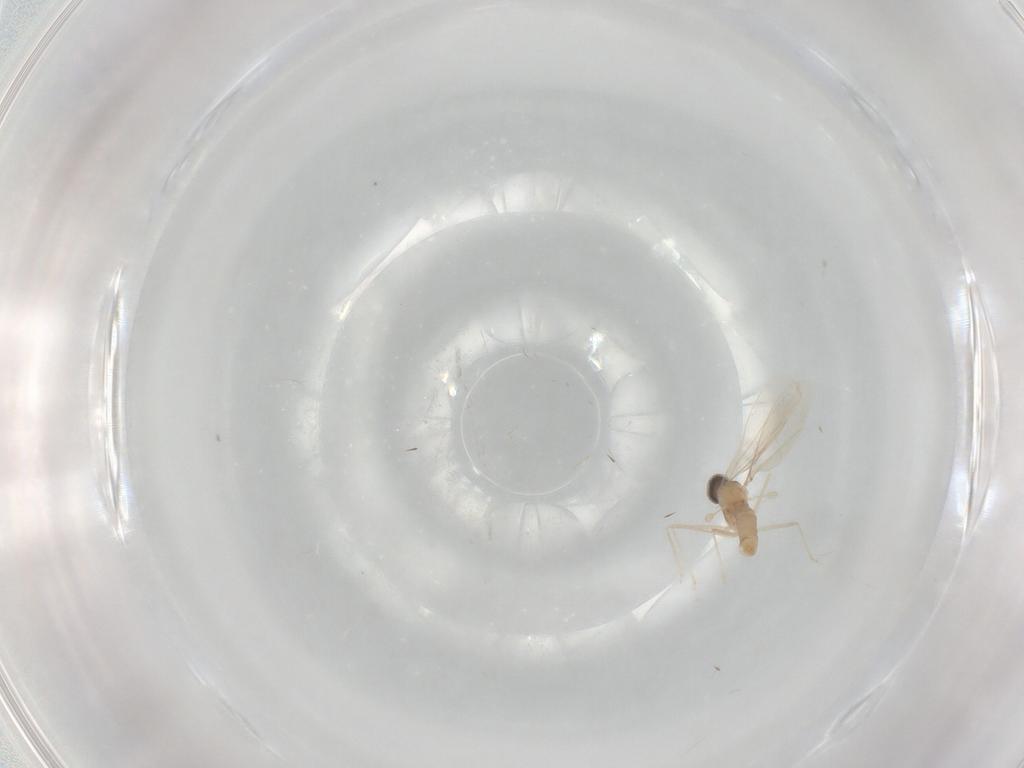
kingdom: Animalia
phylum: Arthropoda
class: Insecta
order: Diptera
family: Cecidomyiidae
